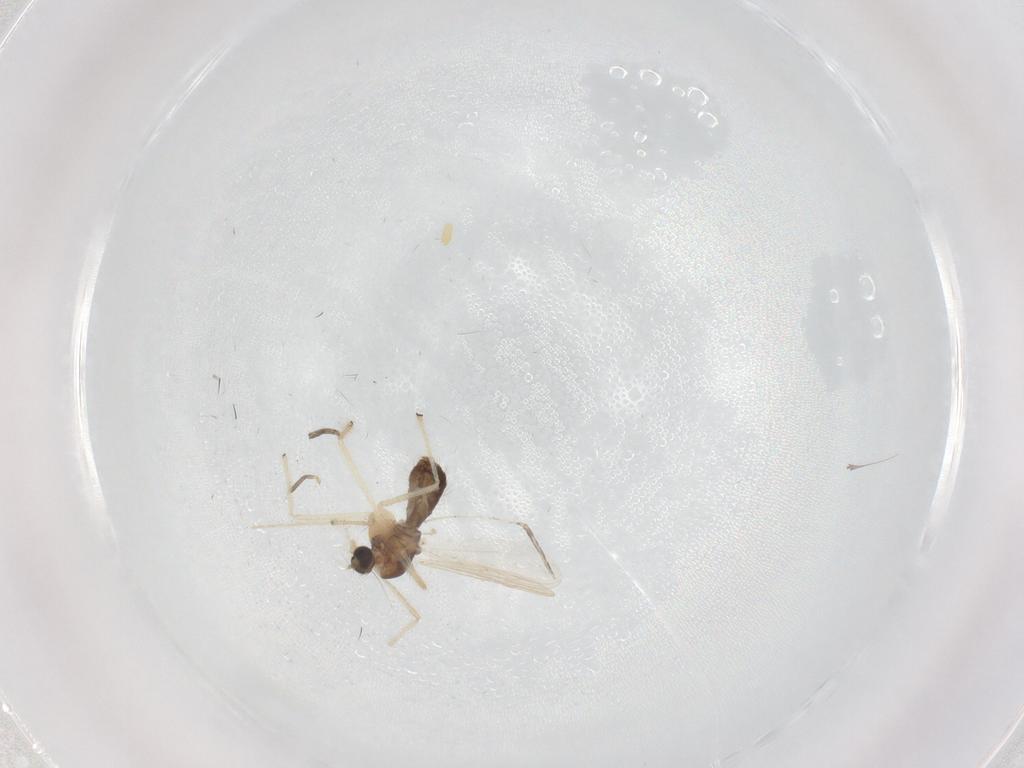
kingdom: Animalia
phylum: Arthropoda
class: Insecta
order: Diptera
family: Cecidomyiidae
